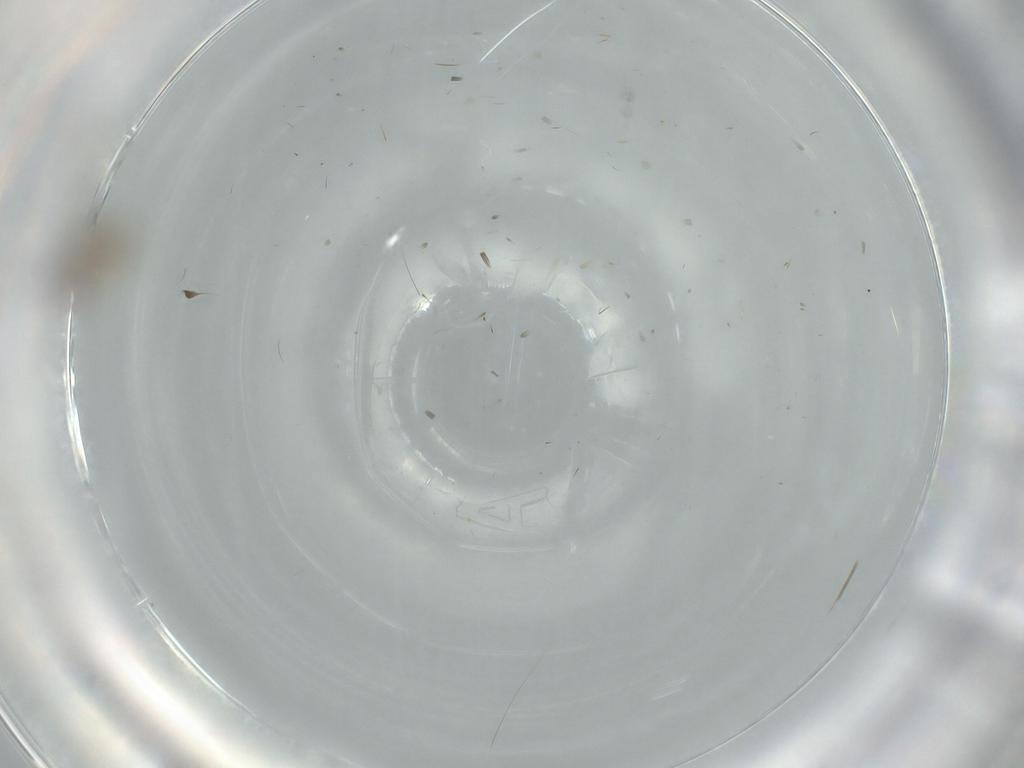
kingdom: Animalia
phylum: Arthropoda
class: Insecta
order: Diptera
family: Chironomidae
